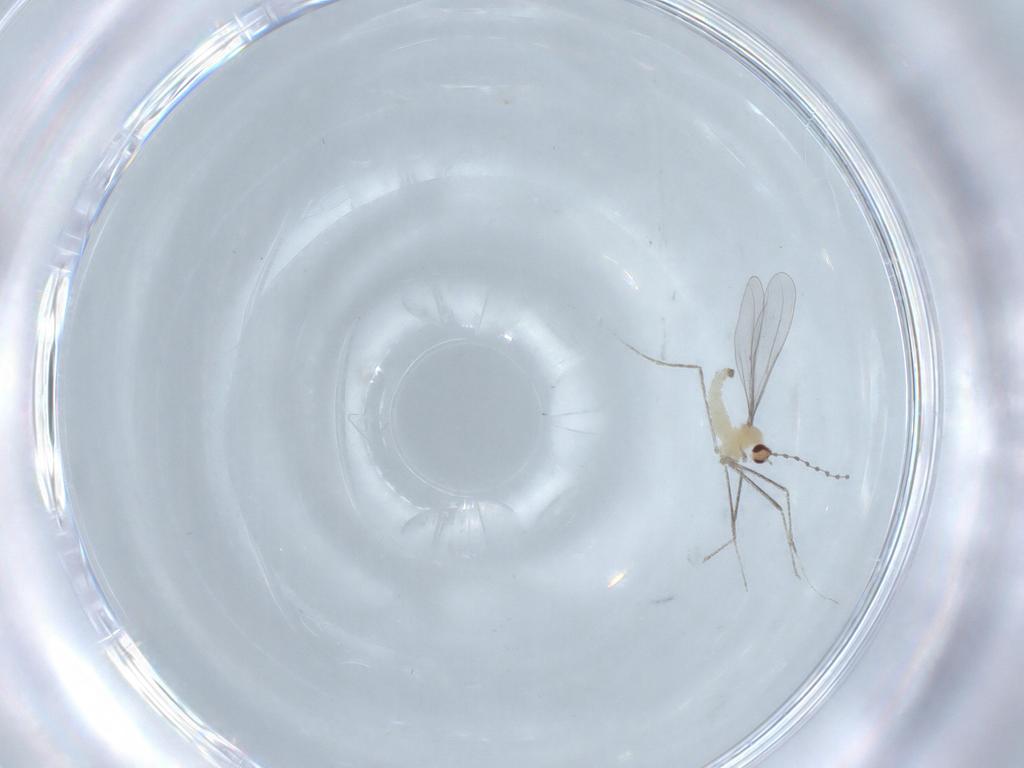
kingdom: Animalia
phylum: Arthropoda
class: Insecta
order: Diptera
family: Cecidomyiidae
